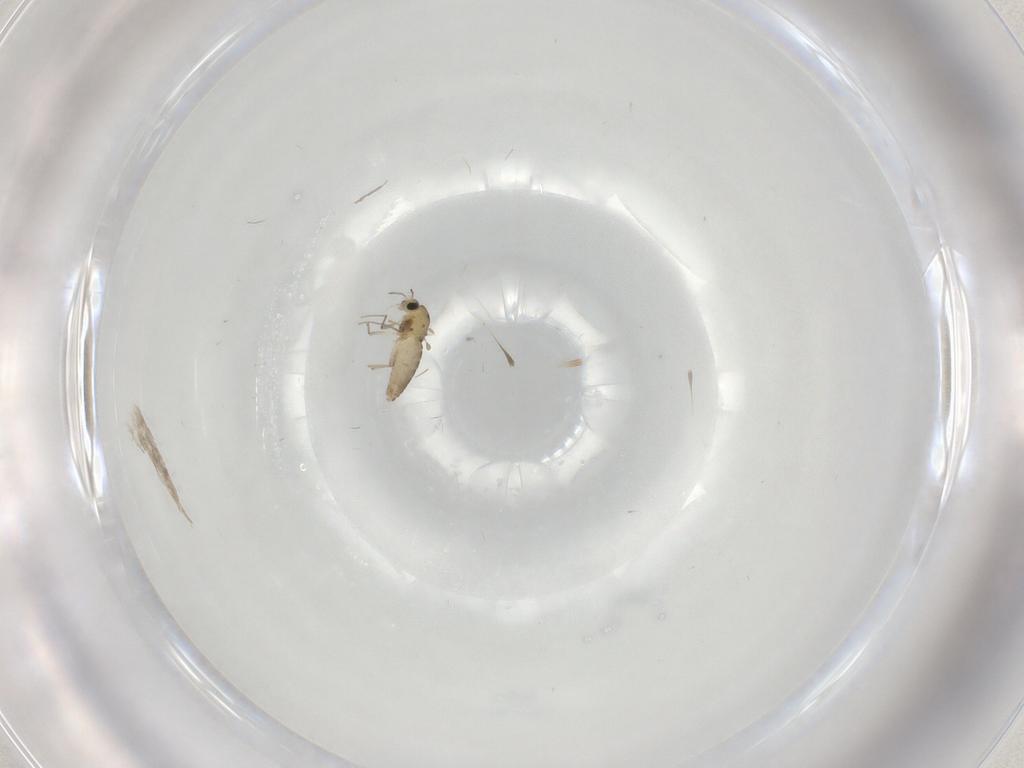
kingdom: Animalia
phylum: Arthropoda
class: Insecta
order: Diptera
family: Chironomidae
